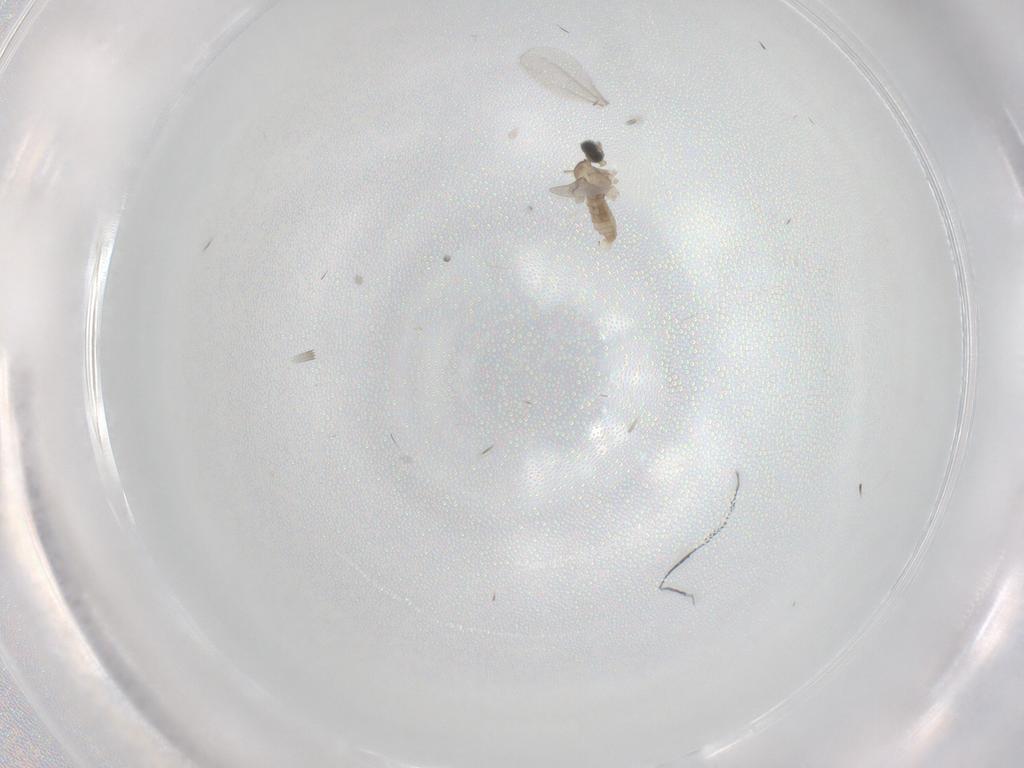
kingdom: Animalia
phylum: Arthropoda
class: Insecta
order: Diptera
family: Cecidomyiidae
